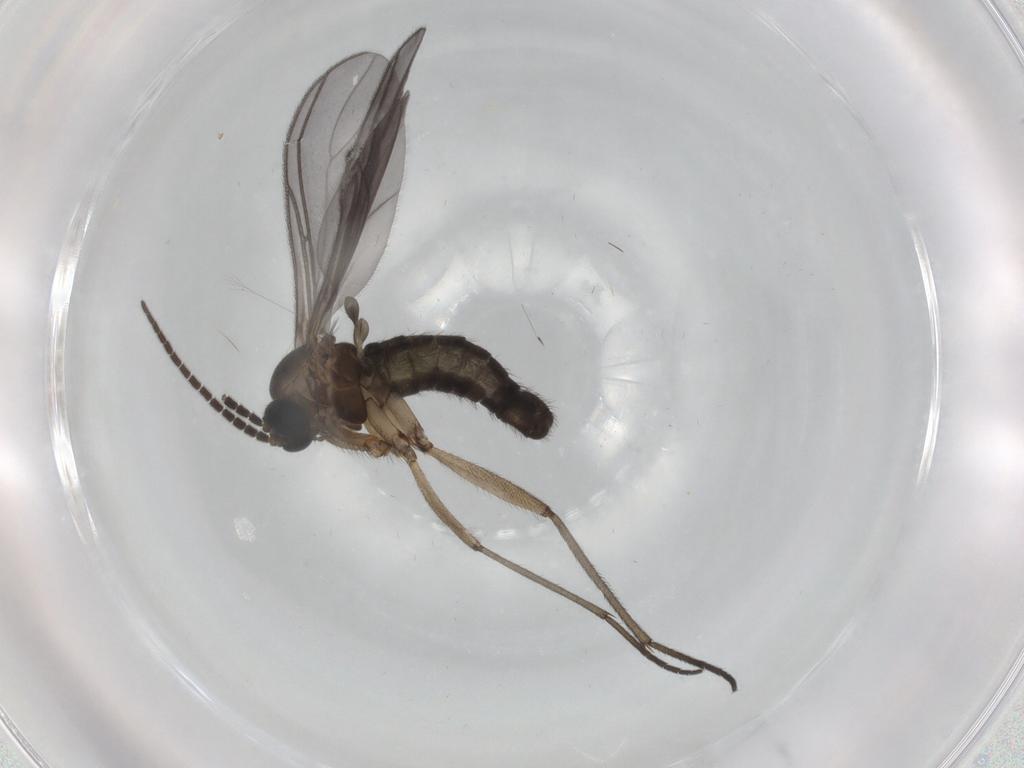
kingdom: Animalia
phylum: Arthropoda
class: Insecta
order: Diptera
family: Sciaridae
